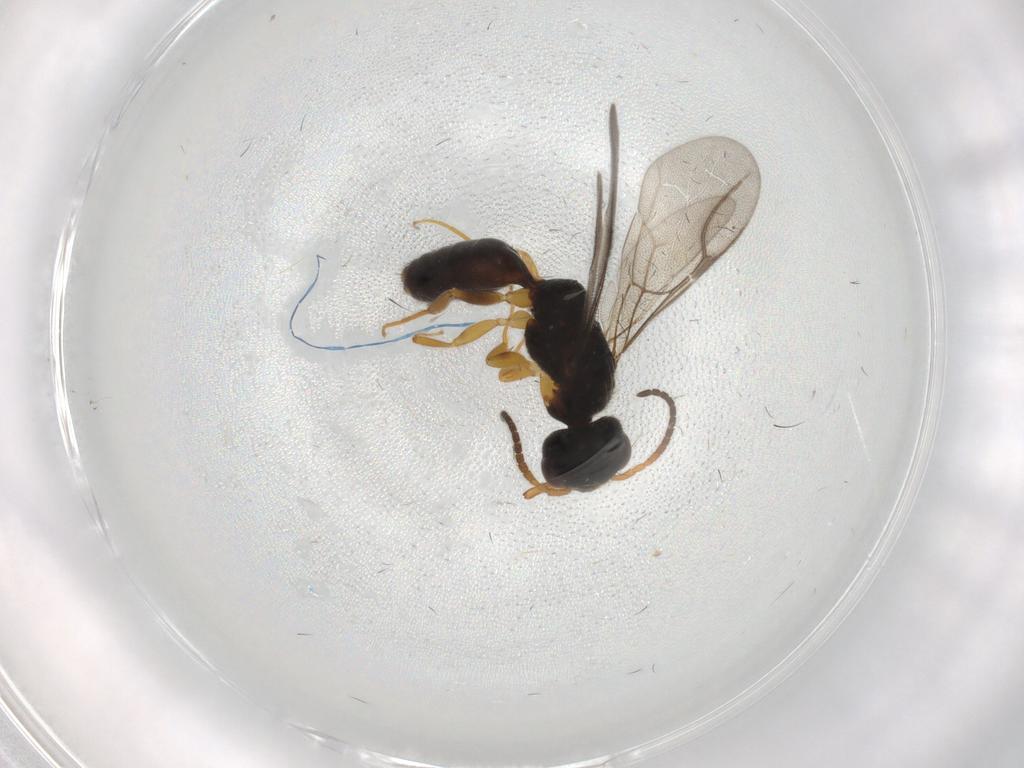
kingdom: Animalia
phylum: Arthropoda
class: Insecta
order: Hymenoptera
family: Bethylidae
